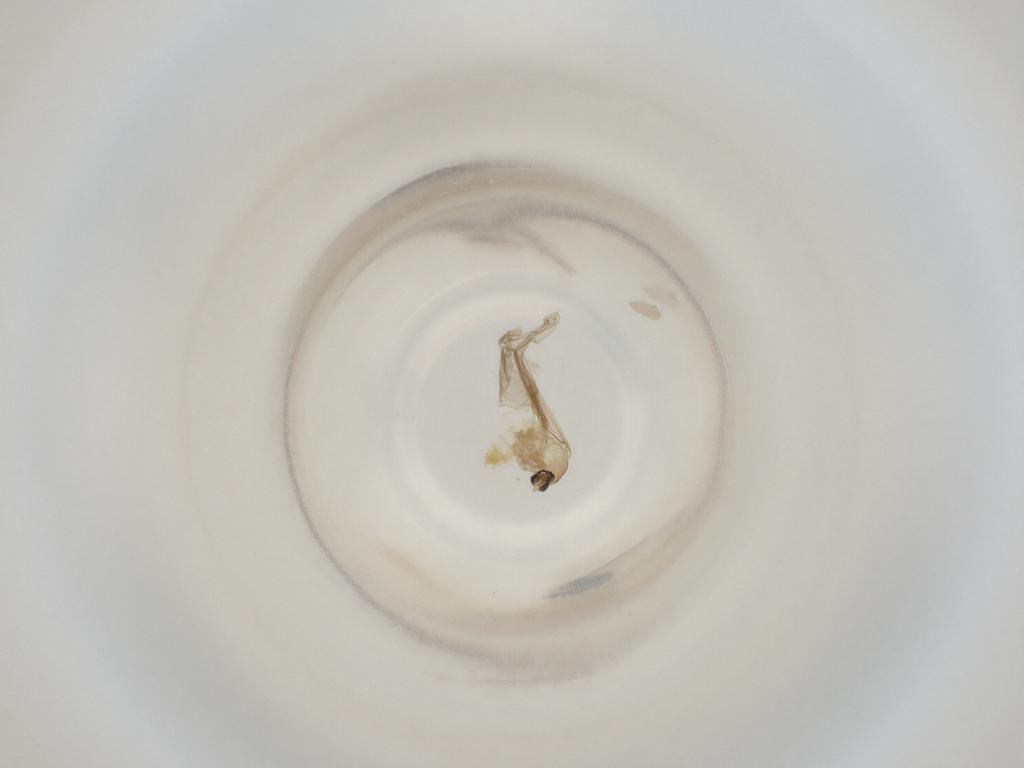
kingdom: Animalia
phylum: Arthropoda
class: Insecta
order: Diptera
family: Cecidomyiidae
